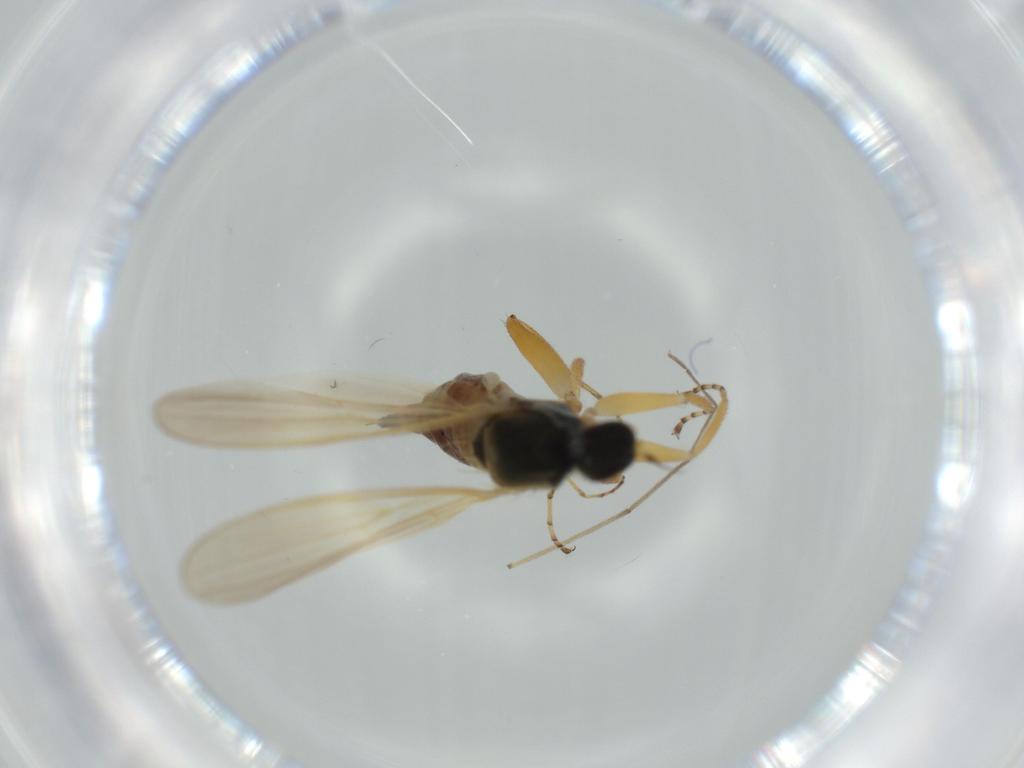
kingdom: Animalia
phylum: Arthropoda
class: Insecta
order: Diptera
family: Hybotidae
